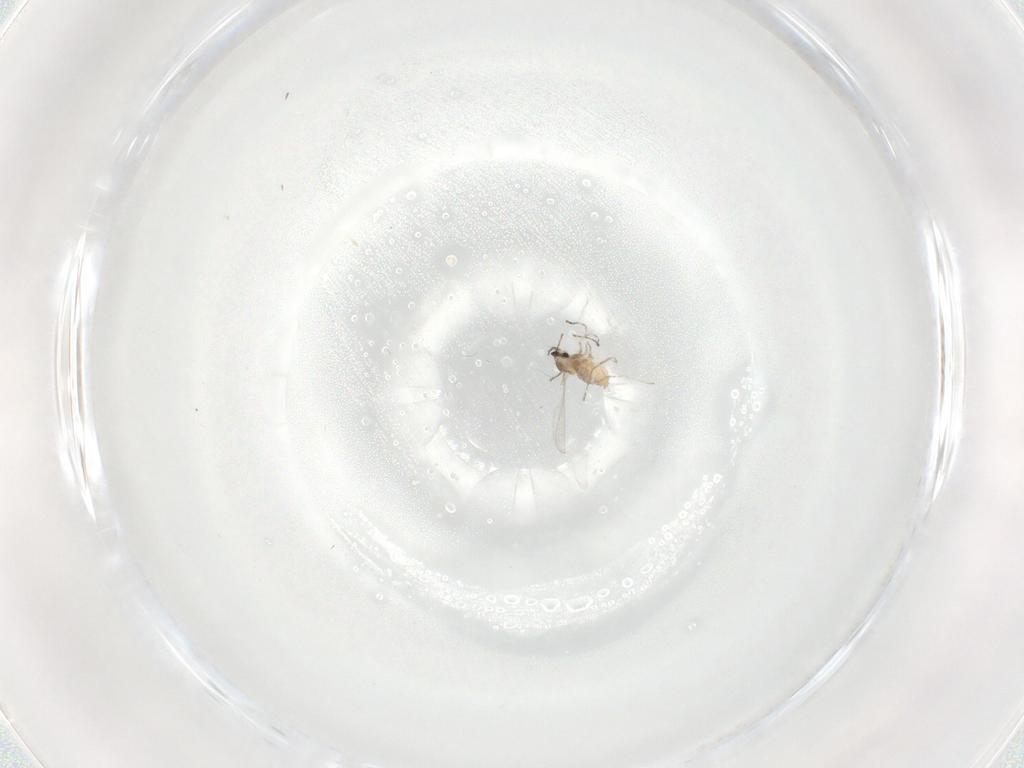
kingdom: Animalia
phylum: Arthropoda
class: Insecta
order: Diptera
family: Cecidomyiidae
